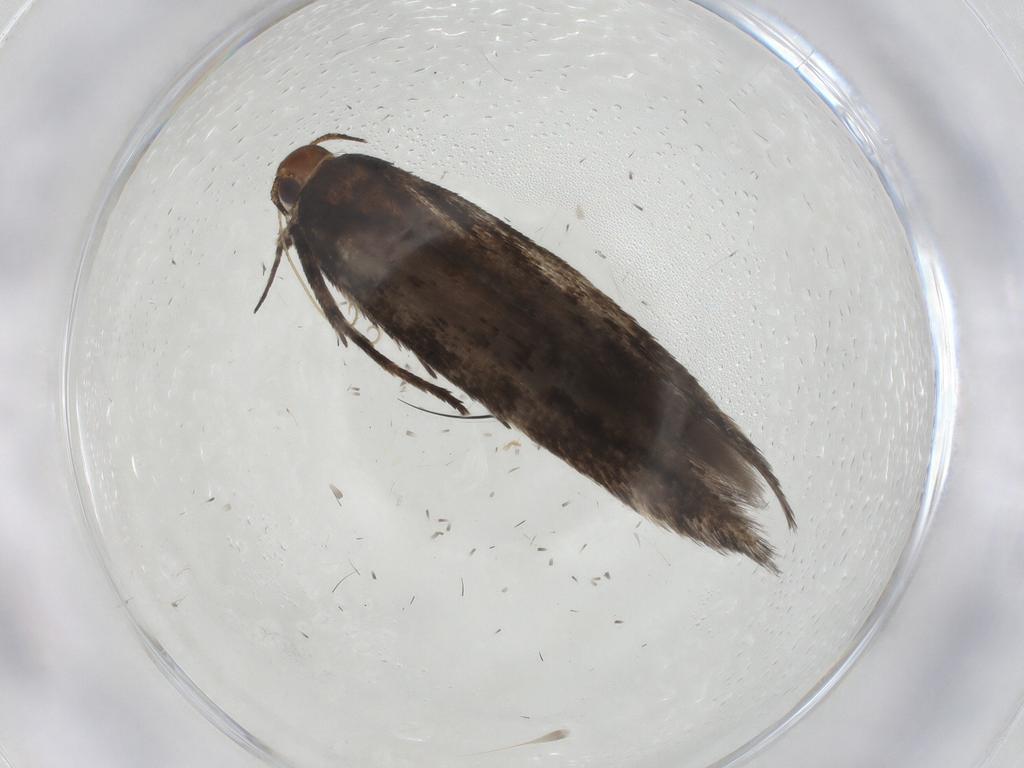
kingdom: Animalia
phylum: Arthropoda
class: Insecta
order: Lepidoptera
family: Gelechiidae
